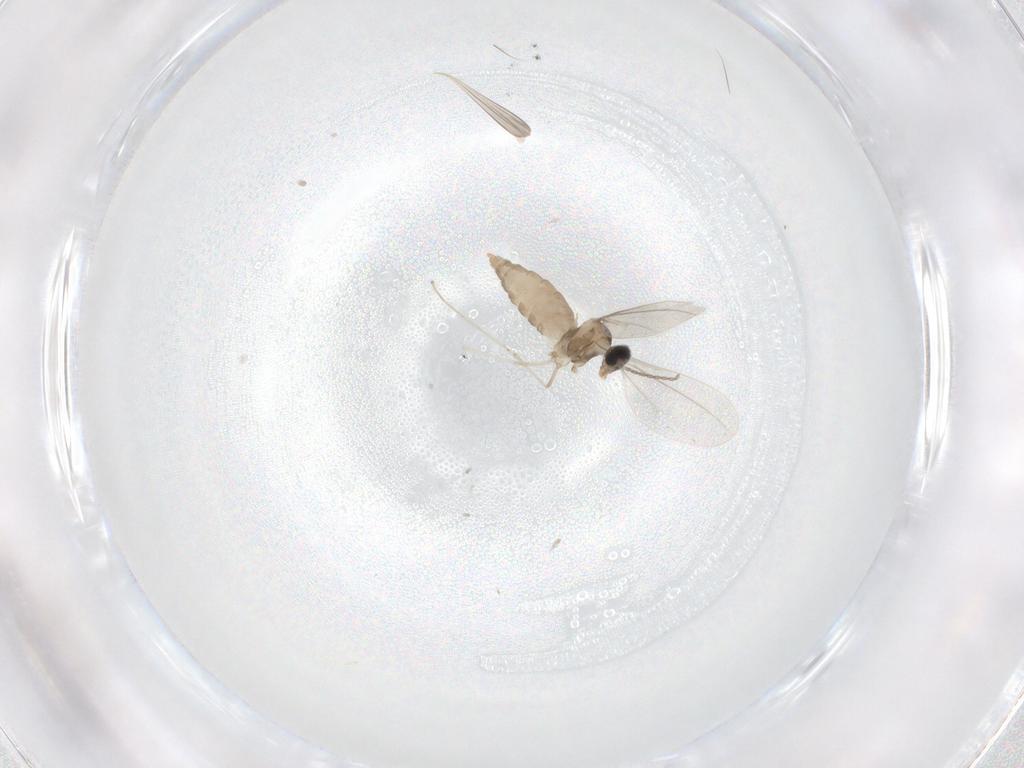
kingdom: Animalia
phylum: Arthropoda
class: Insecta
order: Diptera
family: Cecidomyiidae
